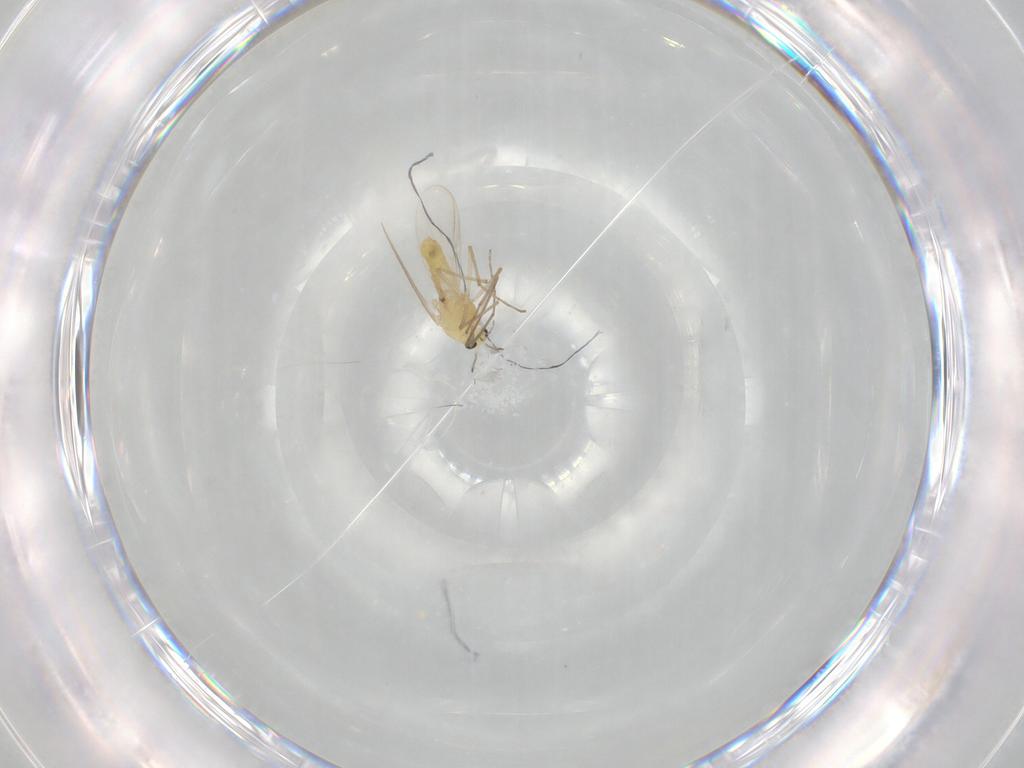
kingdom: Animalia
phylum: Arthropoda
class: Insecta
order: Diptera
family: Chironomidae
